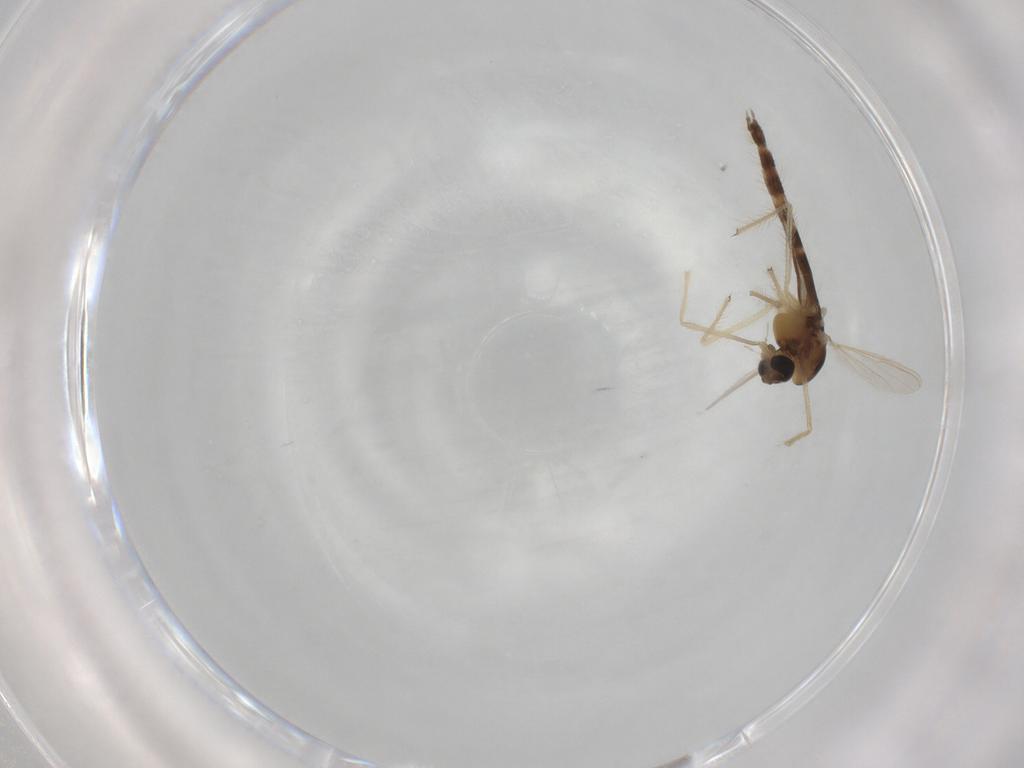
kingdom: Animalia
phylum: Arthropoda
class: Insecta
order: Diptera
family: Chironomidae
